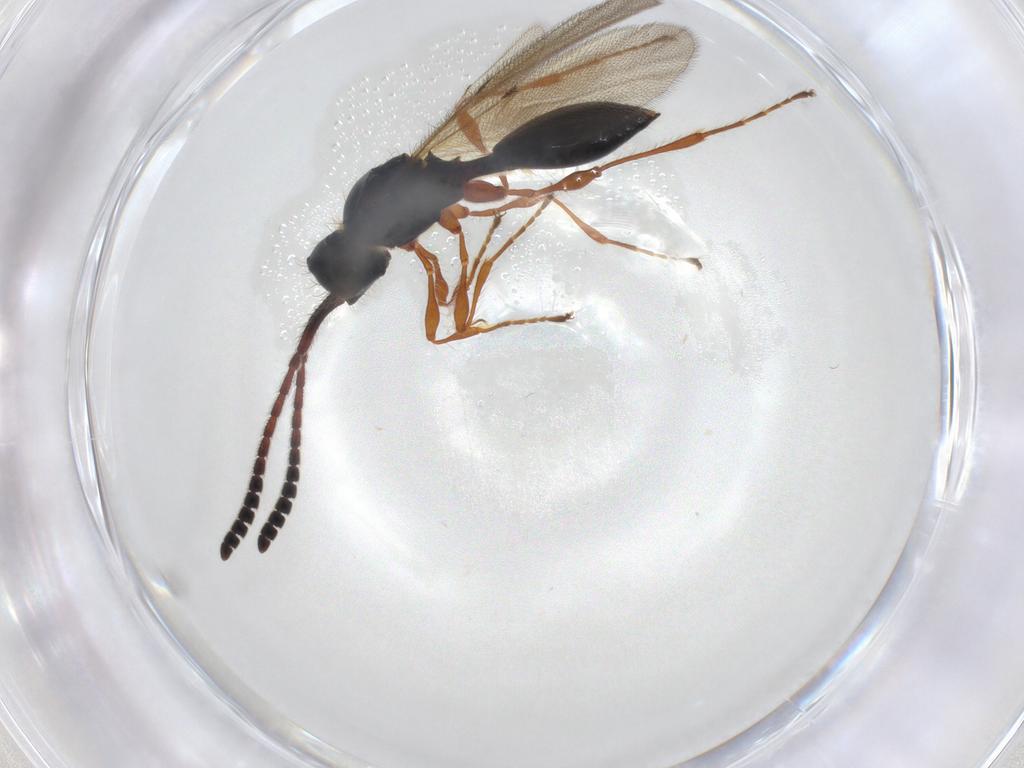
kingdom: Animalia
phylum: Arthropoda
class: Insecta
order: Hymenoptera
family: Diapriidae
